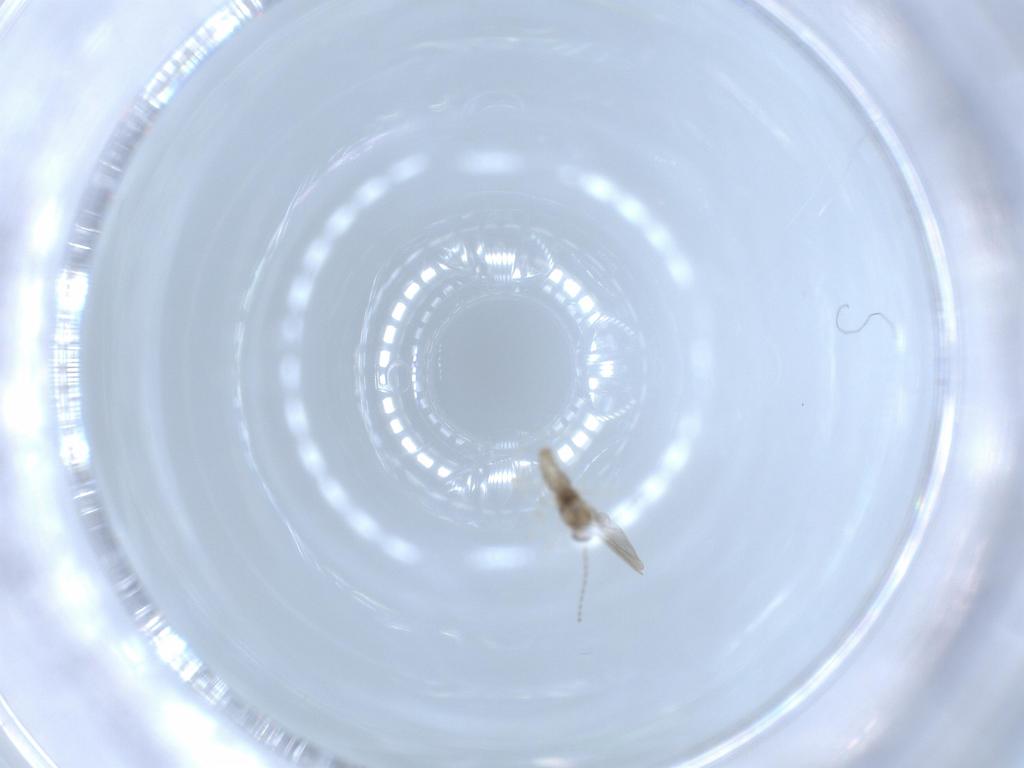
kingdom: Animalia
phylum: Arthropoda
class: Insecta
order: Diptera
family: Cecidomyiidae
